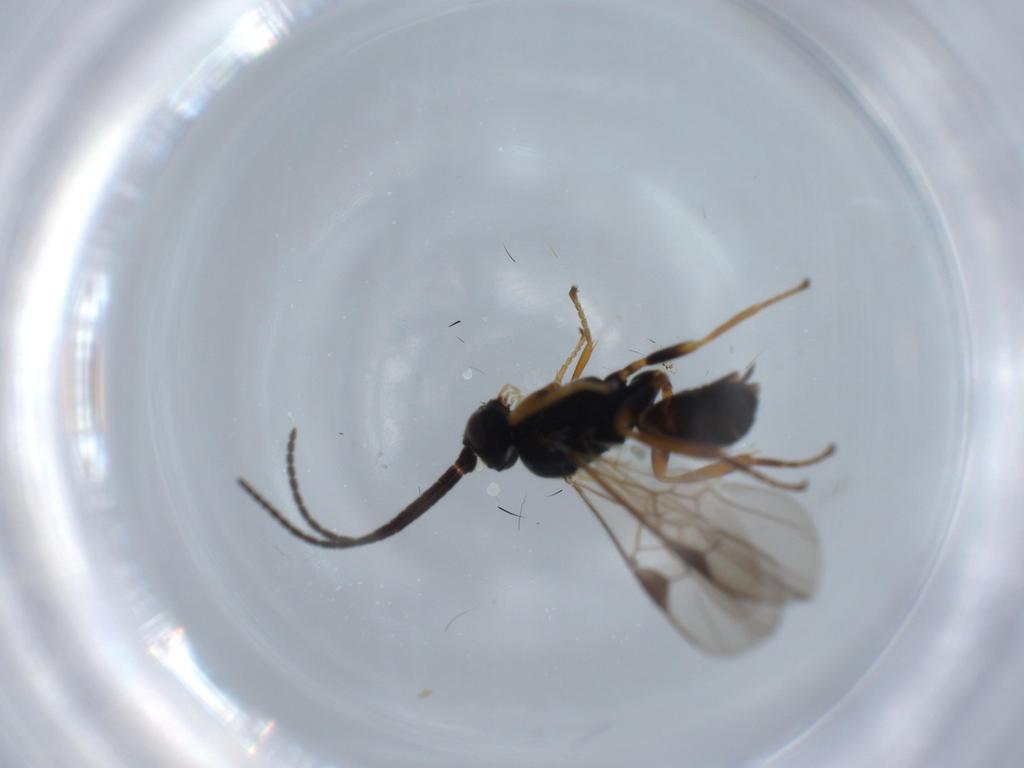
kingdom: Animalia
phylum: Arthropoda
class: Insecta
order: Hymenoptera
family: Braconidae
